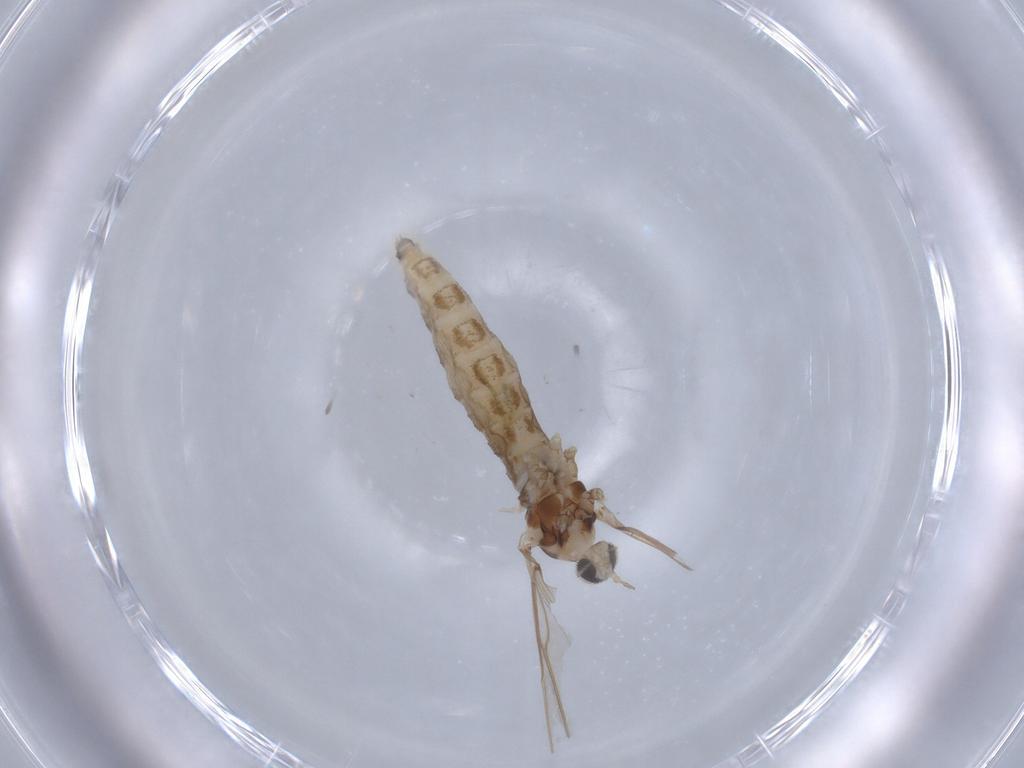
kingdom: Animalia
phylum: Arthropoda
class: Insecta
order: Diptera
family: Cecidomyiidae
